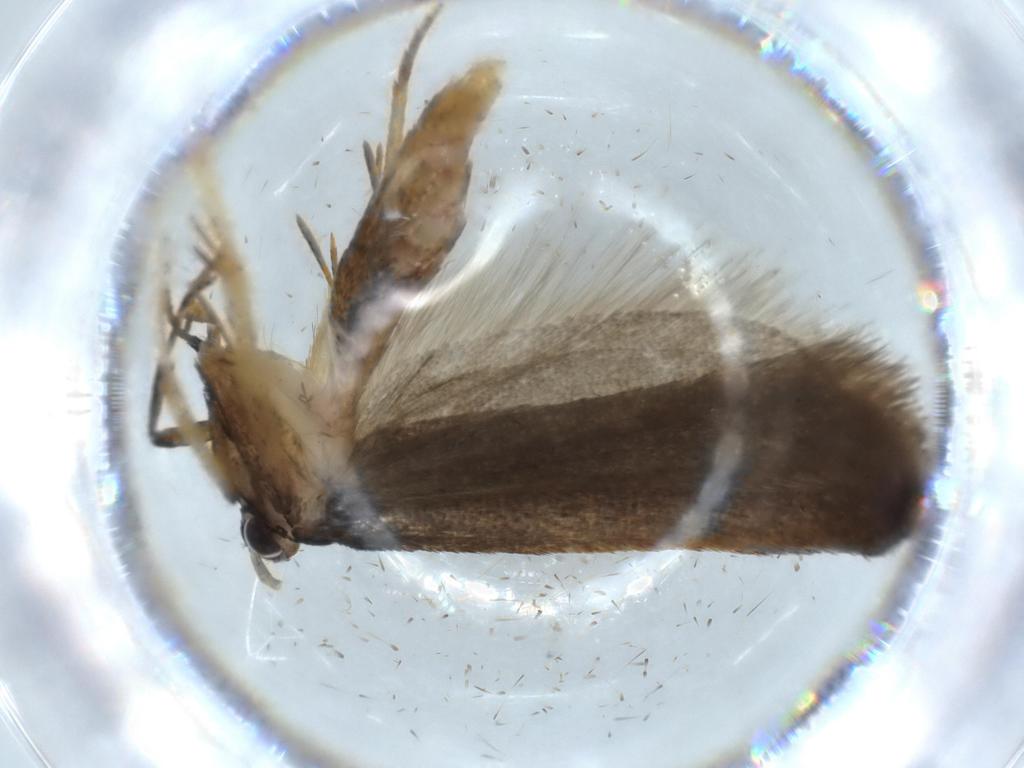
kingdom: Animalia
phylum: Arthropoda
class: Insecta
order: Lepidoptera
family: Lecithoceridae
